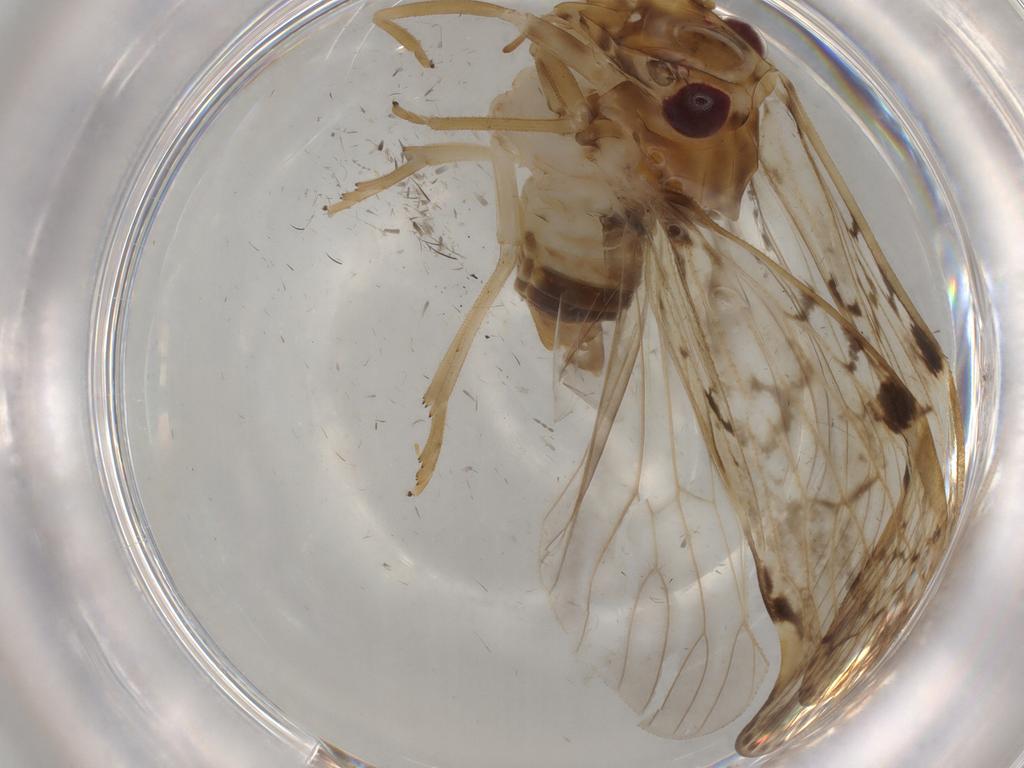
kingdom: Animalia
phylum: Arthropoda
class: Insecta
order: Hemiptera
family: Cixiidae
